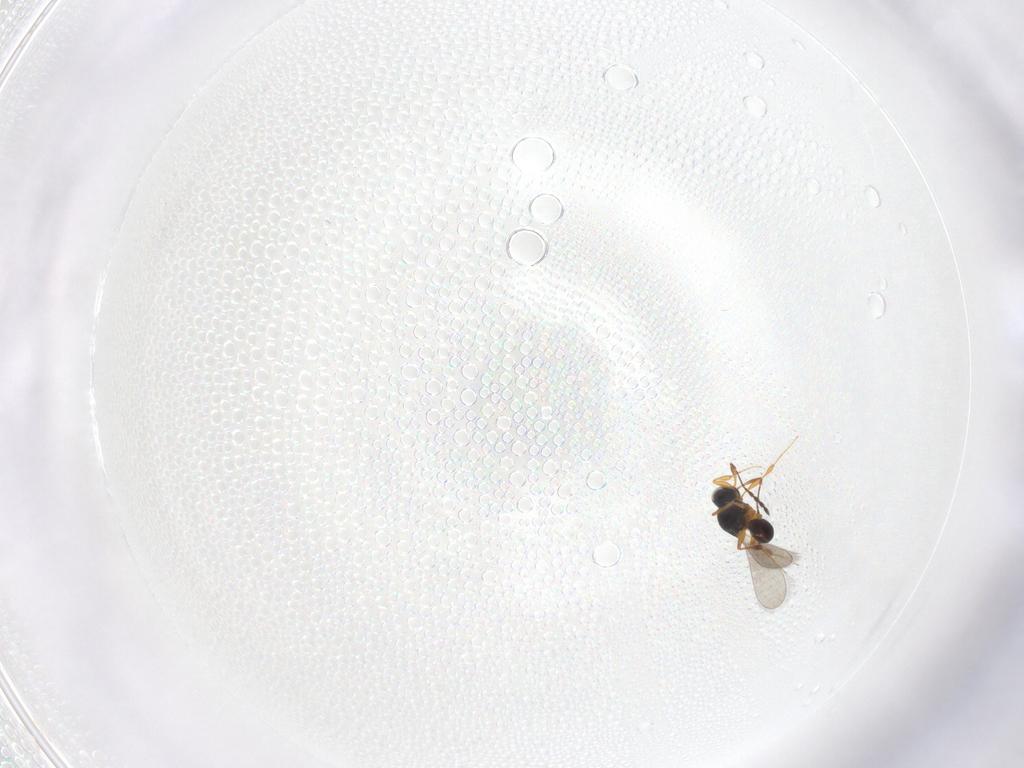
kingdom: Animalia
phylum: Arthropoda
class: Insecta
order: Hymenoptera
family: Platygastridae
